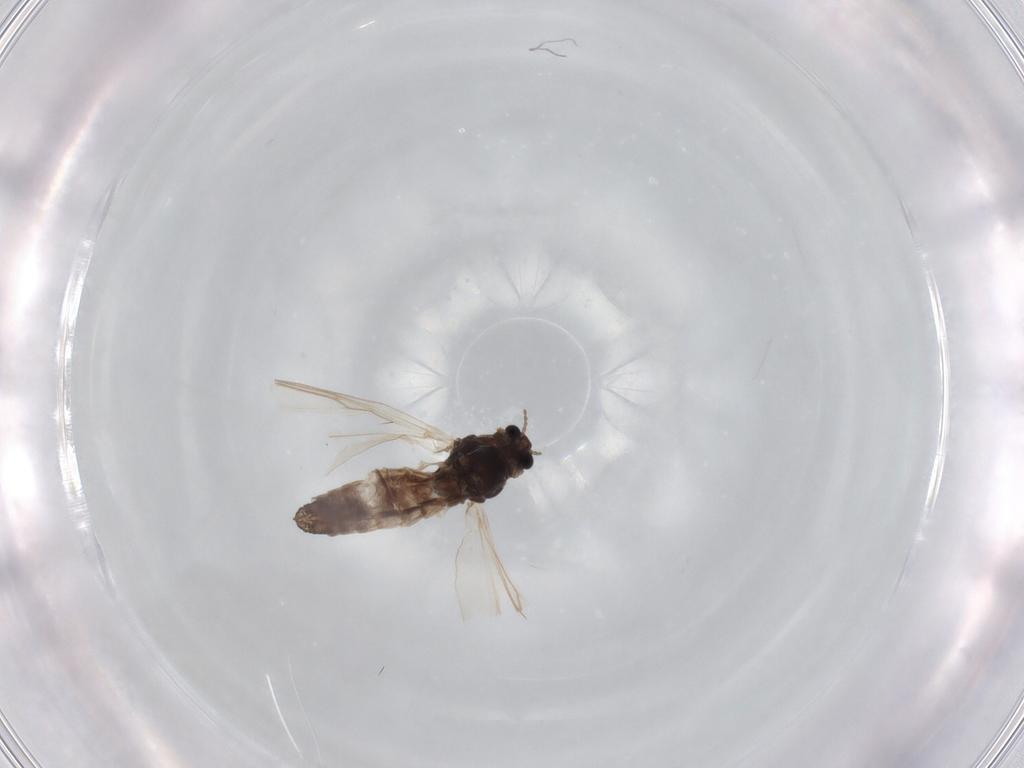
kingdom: Animalia
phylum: Arthropoda
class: Insecta
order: Diptera
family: Chironomidae
